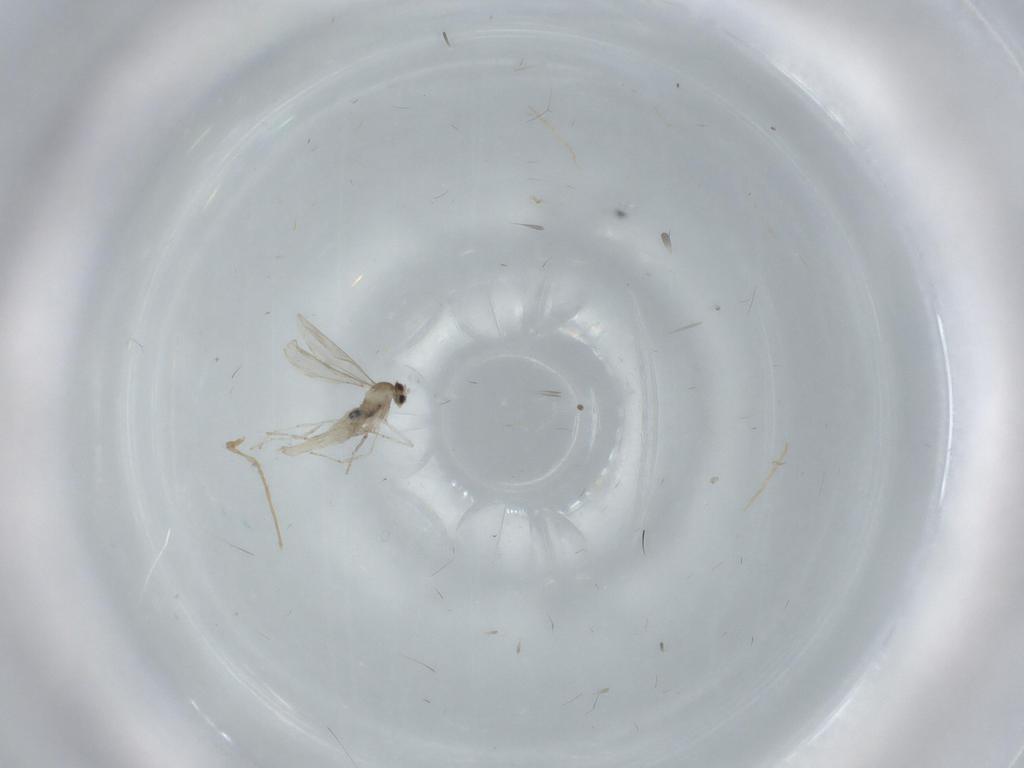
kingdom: Animalia
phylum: Arthropoda
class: Insecta
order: Diptera
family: Cecidomyiidae
